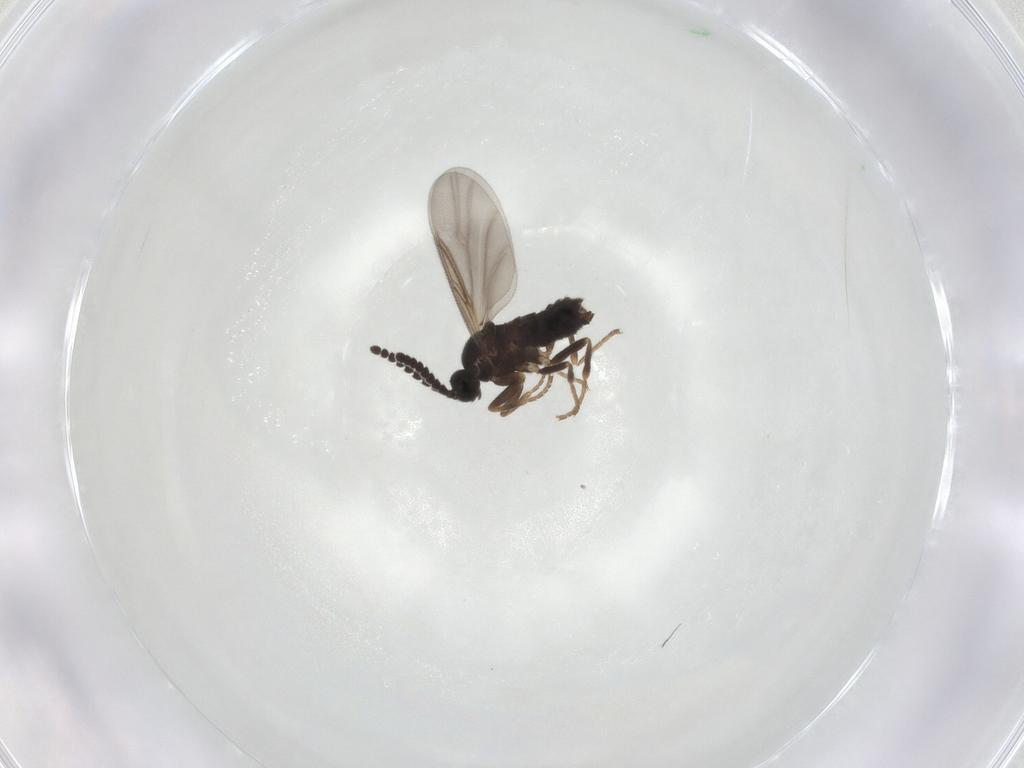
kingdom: Animalia
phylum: Arthropoda
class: Insecta
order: Diptera
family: Scatopsidae
